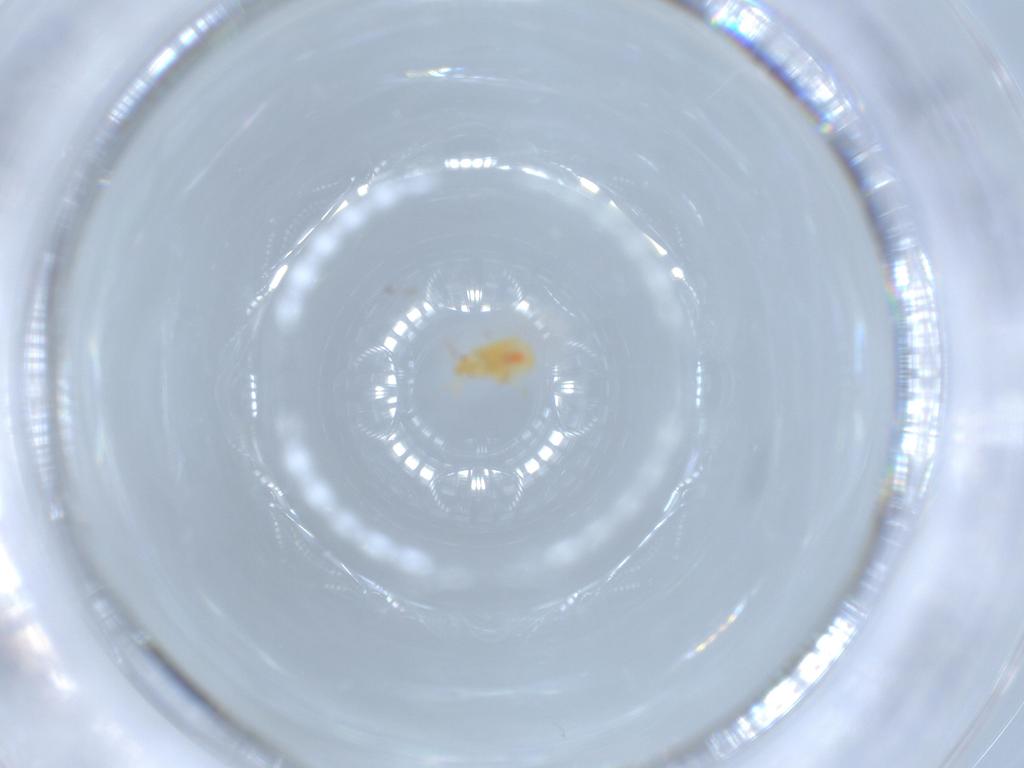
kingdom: Animalia
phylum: Arthropoda
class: Insecta
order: Hemiptera
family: Anthocoridae
